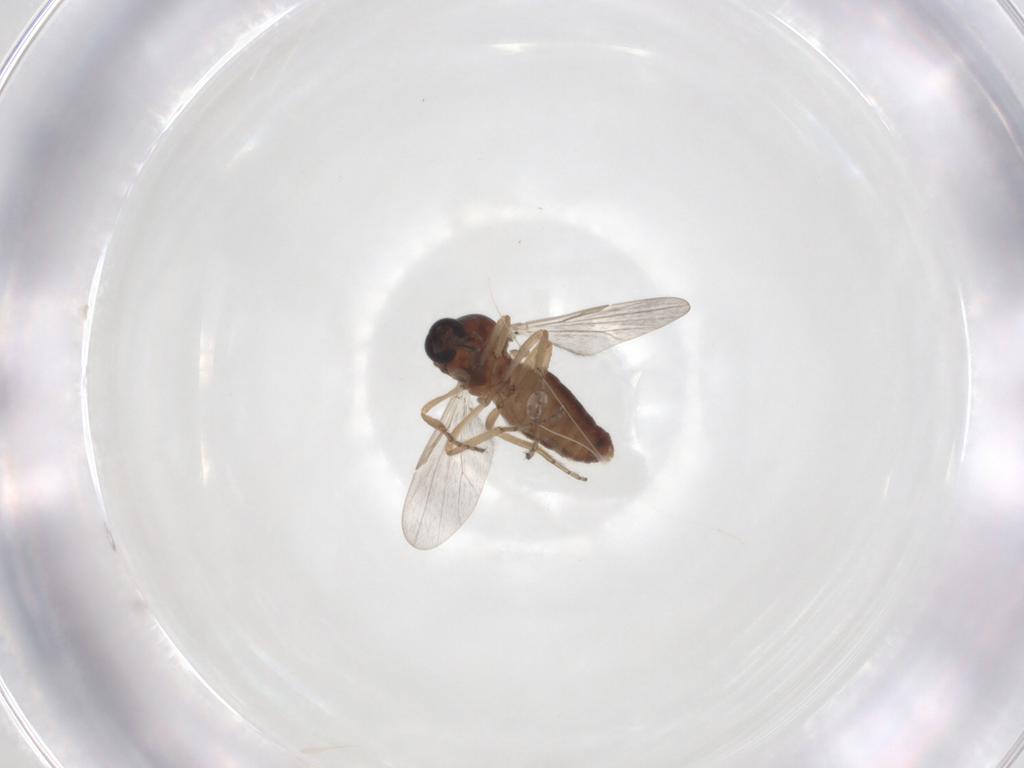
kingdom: Animalia
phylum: Arthropoda
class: Insecta
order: Diptera
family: Ceratopogonidae
